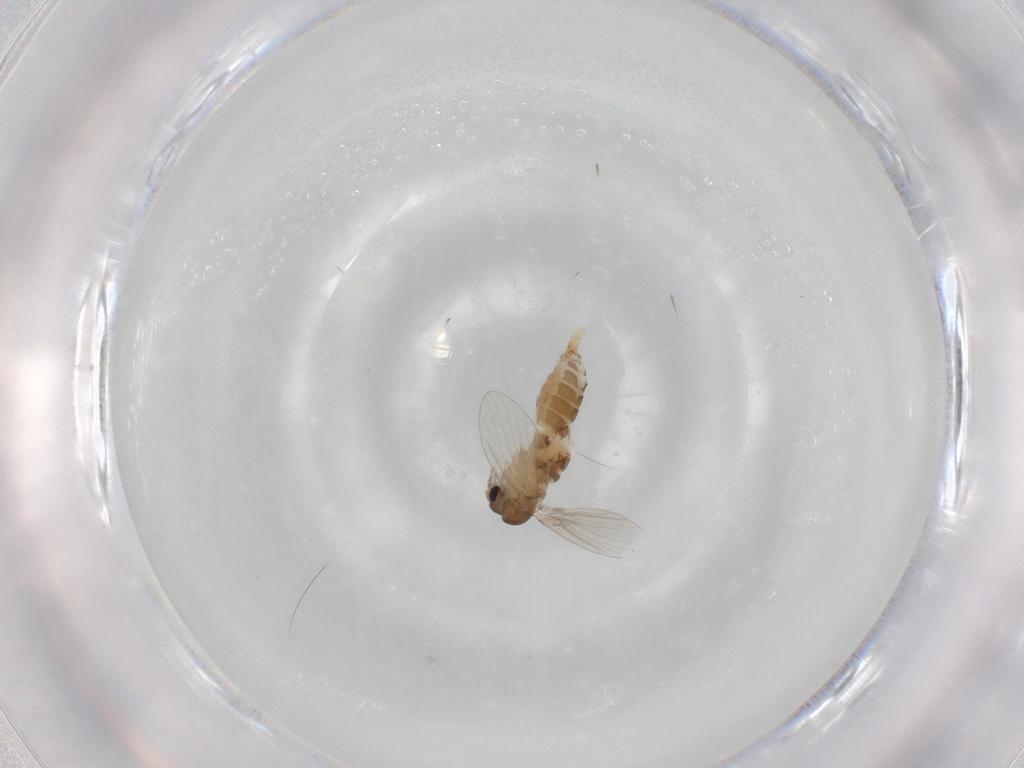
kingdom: Animalia
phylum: Arthropoda
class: Insecta
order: Diptera
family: Psychodidae
